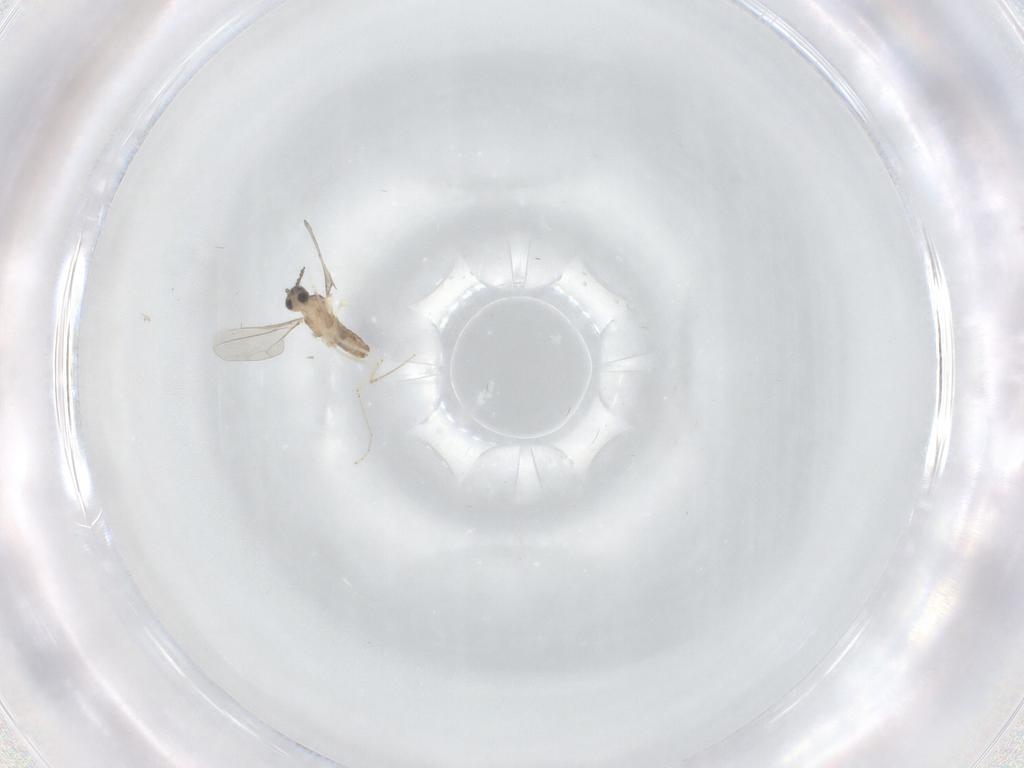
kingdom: Animalia
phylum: Arthropoda
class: Insecta
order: Diptera
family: Cecidomyiidae
